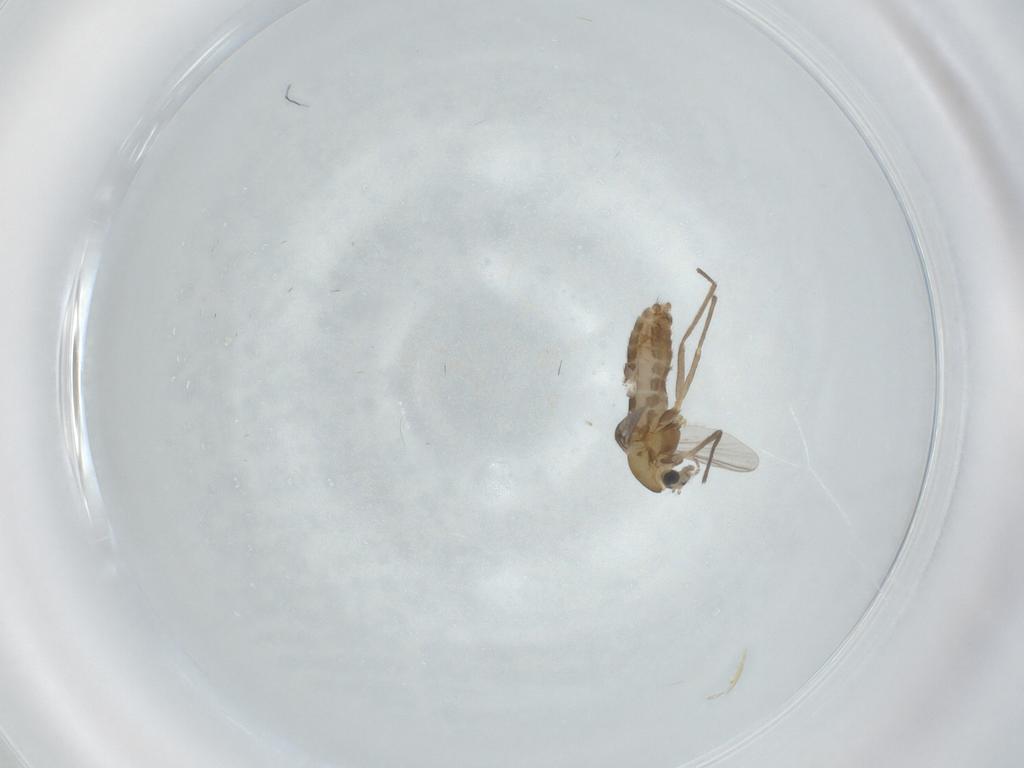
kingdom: Animalia
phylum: Arthropoda
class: Insecta
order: Diptera
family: Chironomidae
